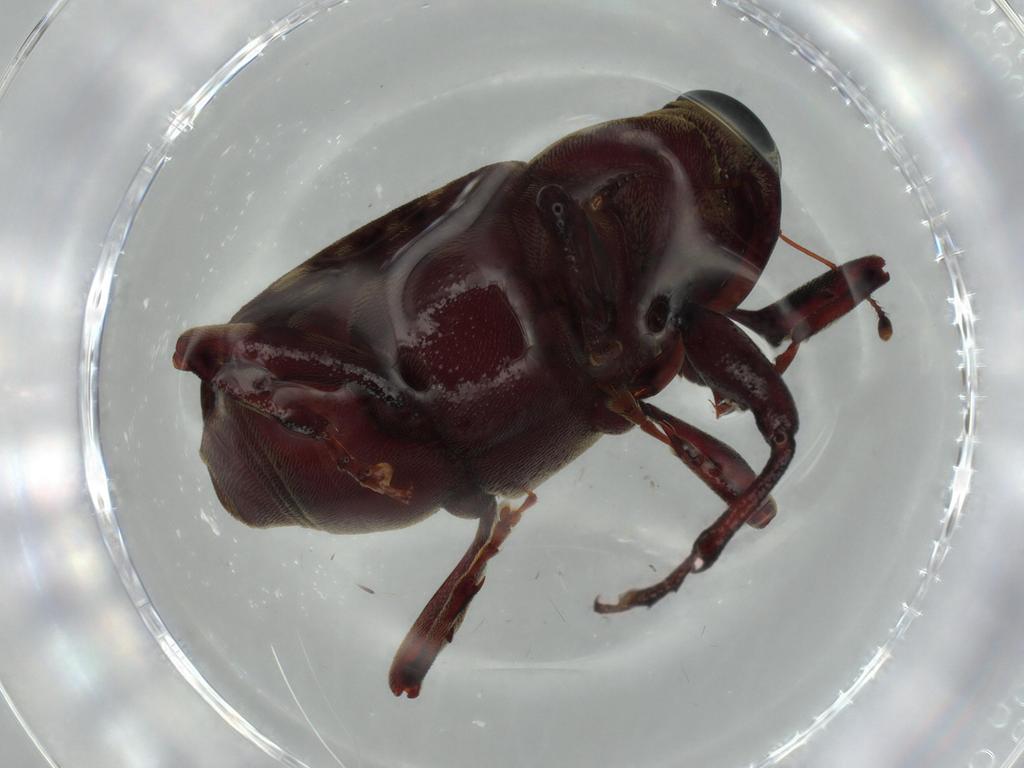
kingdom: Animalia
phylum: Arthropoda
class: Insecta
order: Coleoptera
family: Curculionidae
